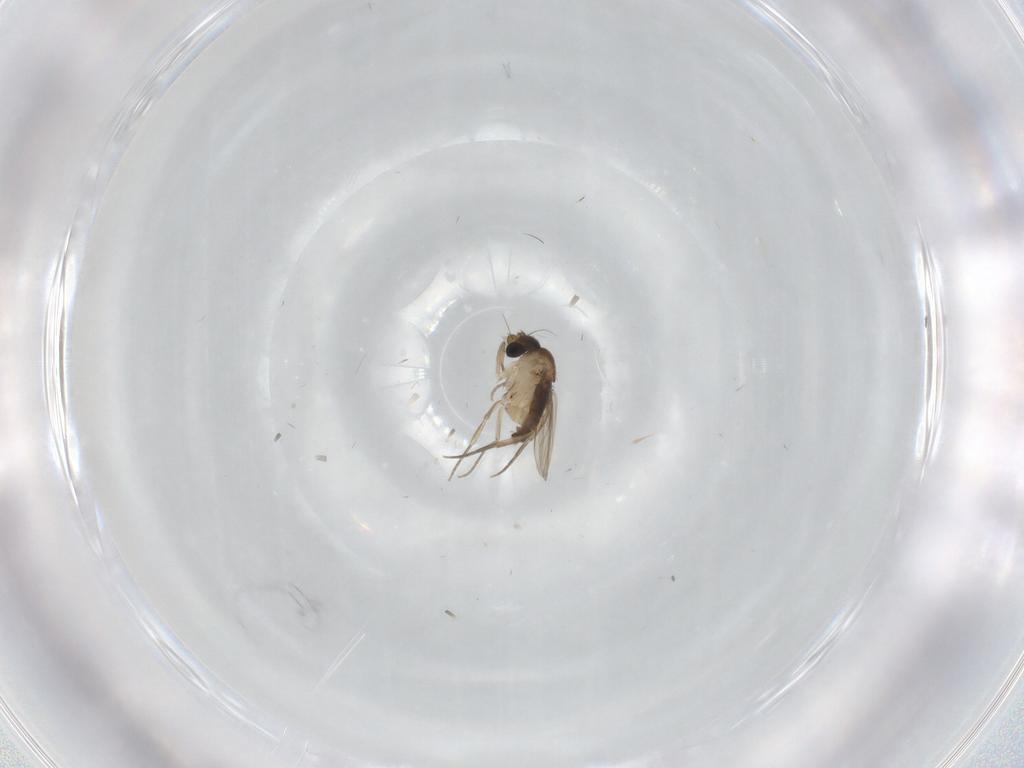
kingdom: Animalia
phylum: Arthropoda
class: Insecta
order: Diptera
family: Phoridae
